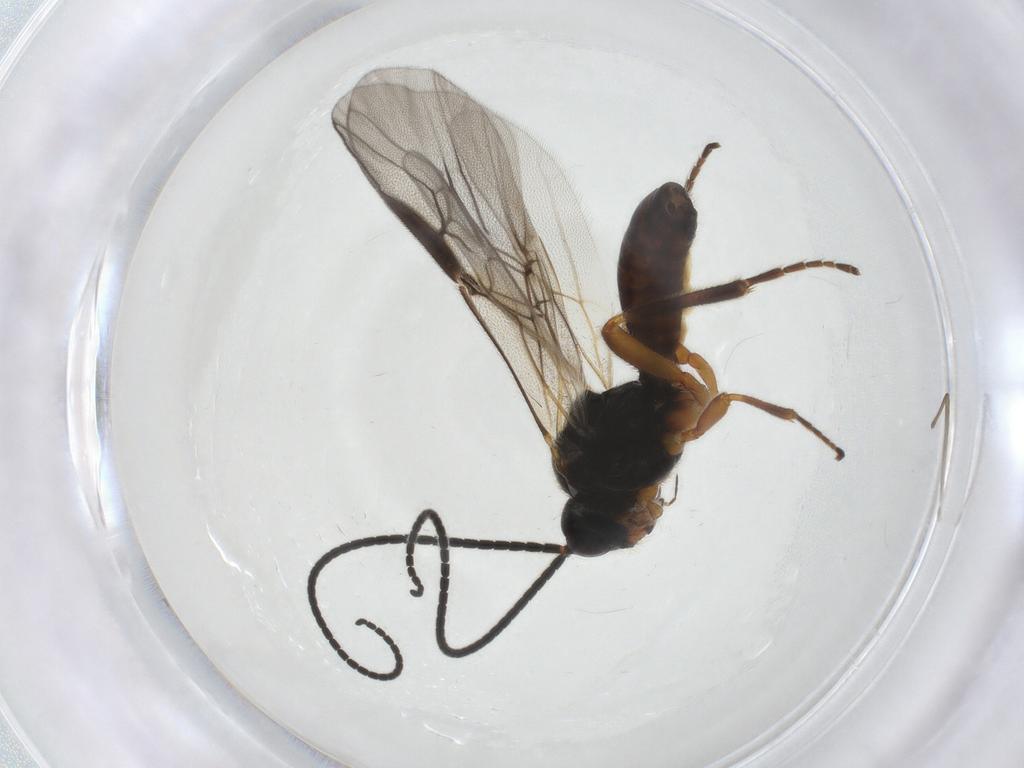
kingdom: Animalia
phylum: Arthropoda
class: Insecta
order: Hymenoptera
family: Braconidae
